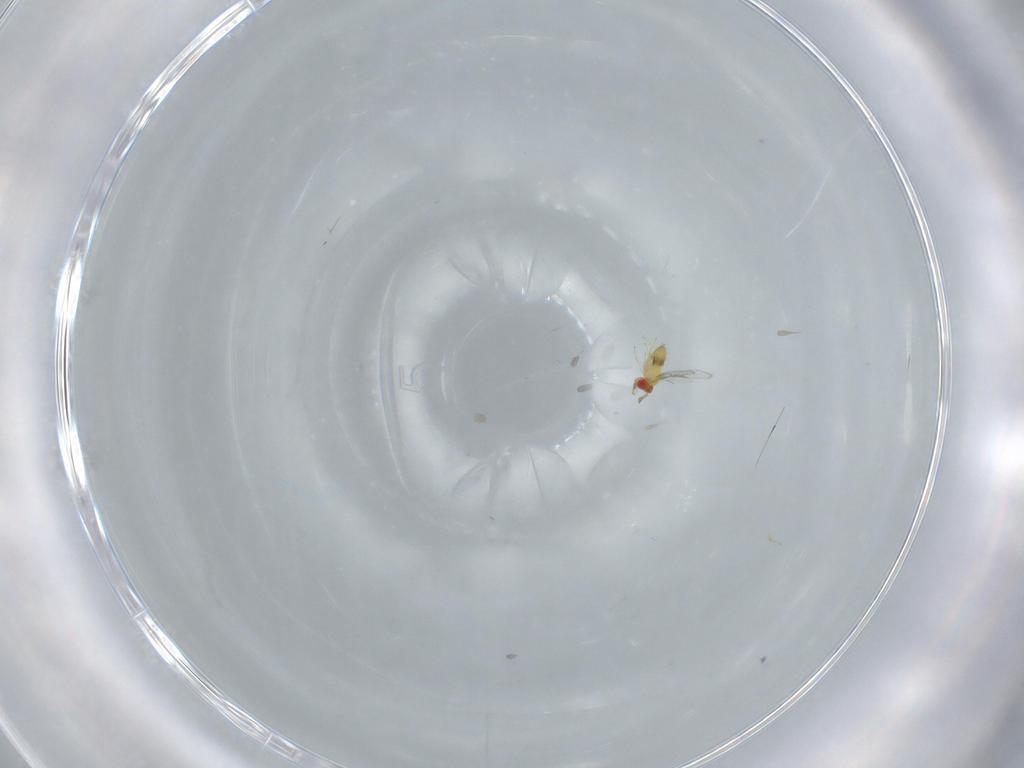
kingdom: Animalia
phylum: Arthropoda
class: Insecta
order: Hymenoptera
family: Trichogrammatidae
